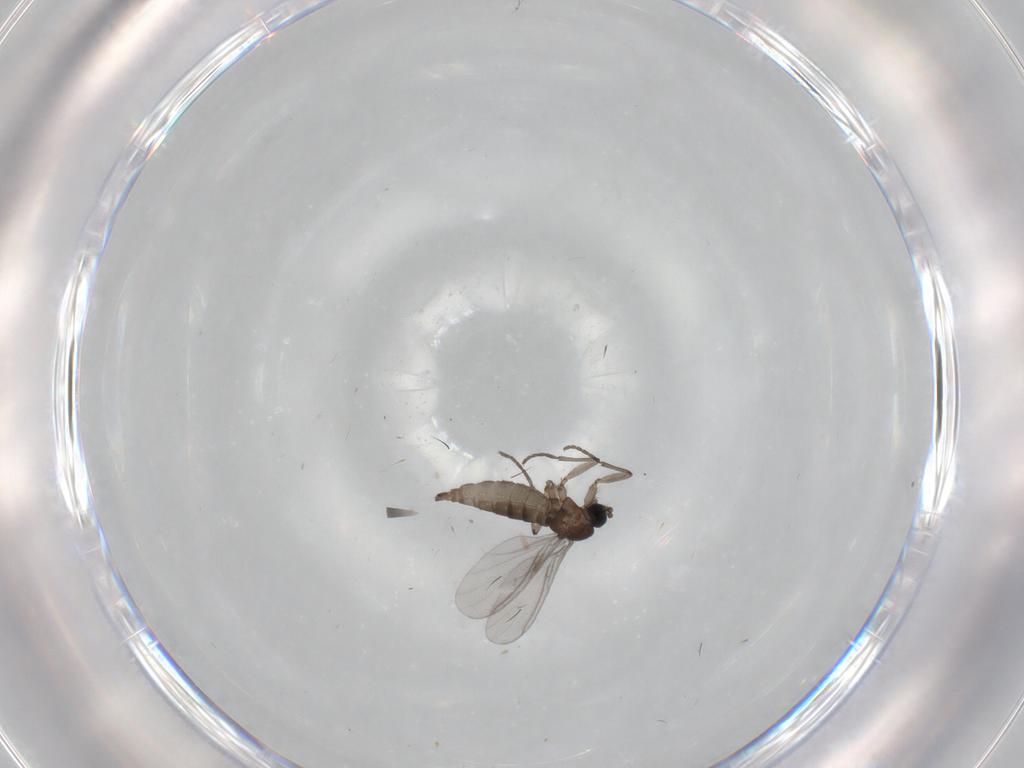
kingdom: Animalia
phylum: Arthropoda
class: Insecta
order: Diptera
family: Sciaridae
